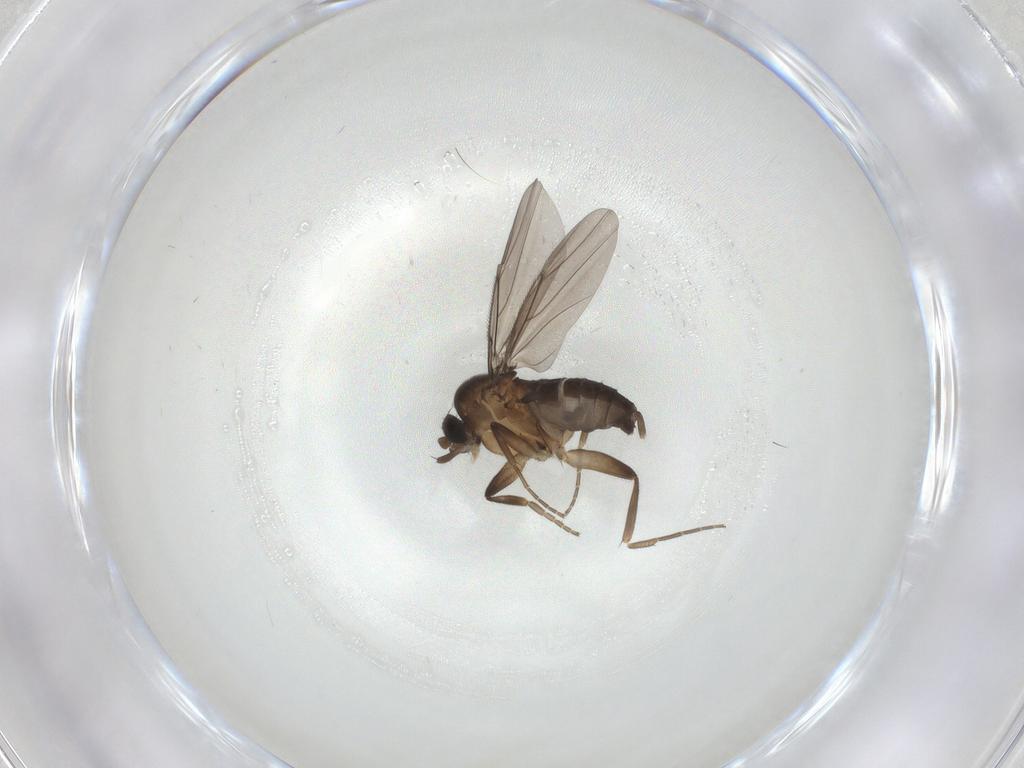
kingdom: Animalia
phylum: Arthropoda
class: Insecta
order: Diptera
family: Phoridae
